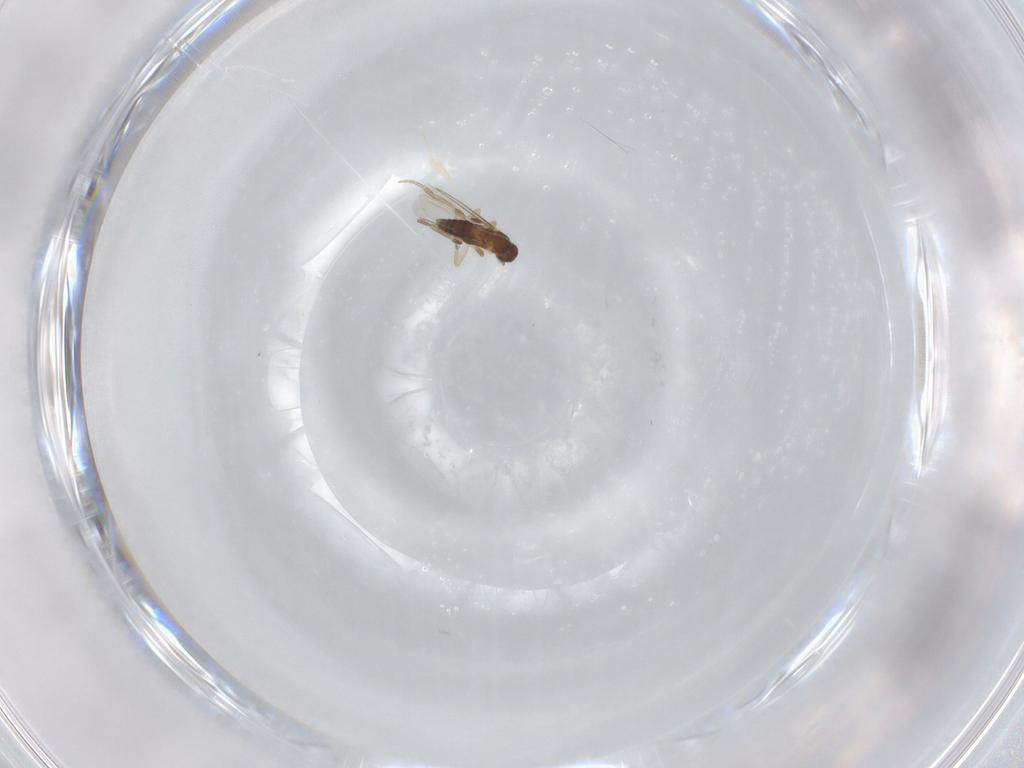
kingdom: Animalia
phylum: Arthropoda
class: Insecta
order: Diptera
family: Phoridae
